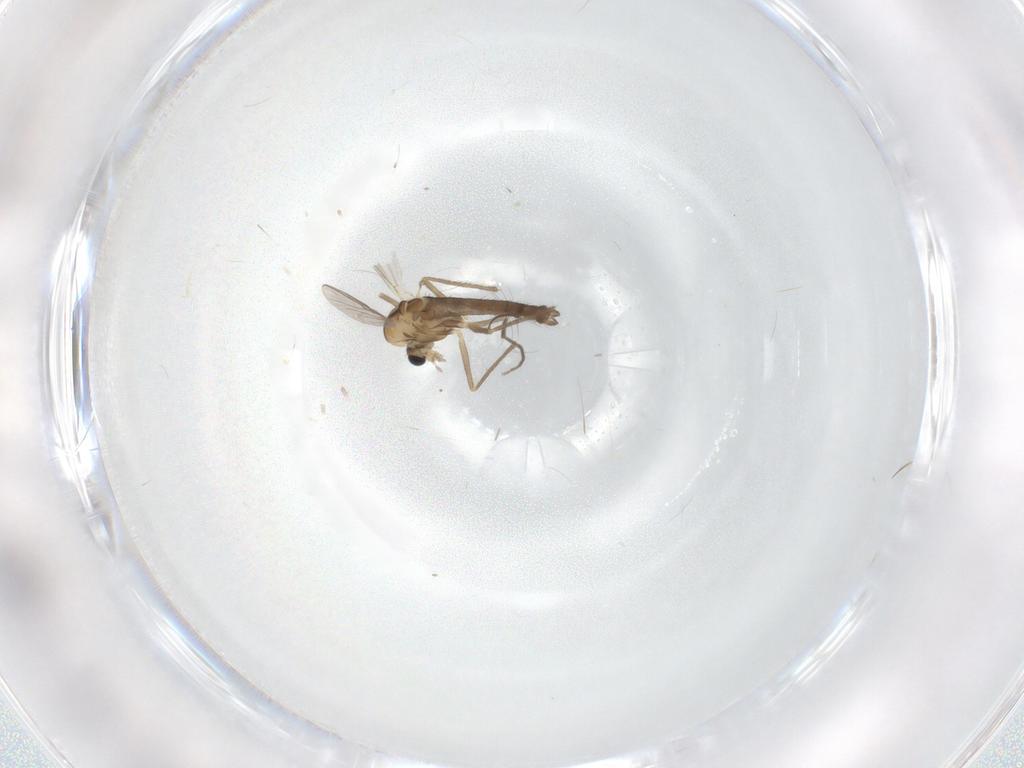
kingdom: Animalia
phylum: Arthropoda
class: Insecta
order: Diptera
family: Chironomidae
